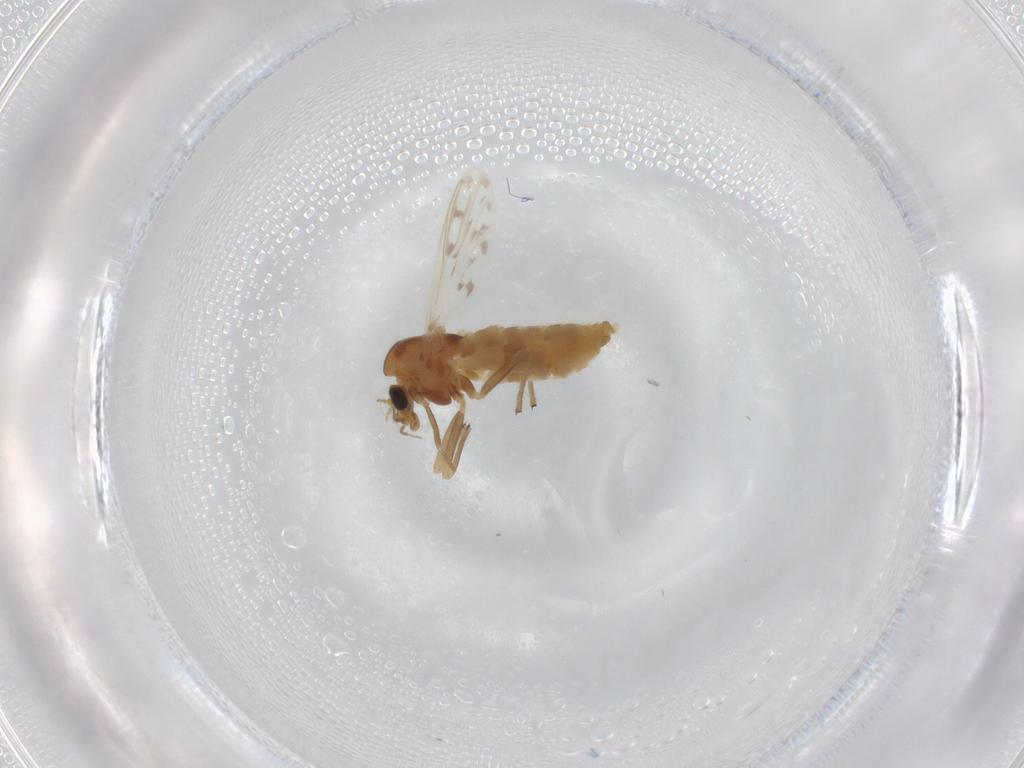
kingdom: Animalia
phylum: Arthropoda
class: Insecta
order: Diptera
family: Chironomidae
